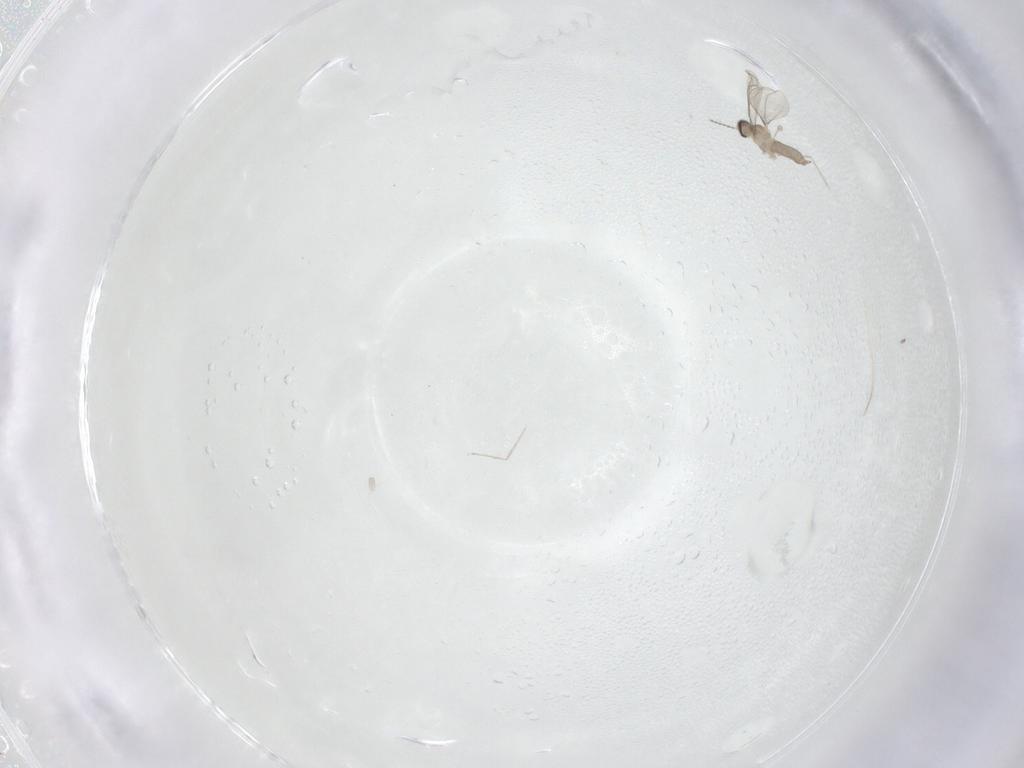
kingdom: Animalia
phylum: Arthropoda
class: Insecta
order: Diptera
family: Cecidomyiidae
